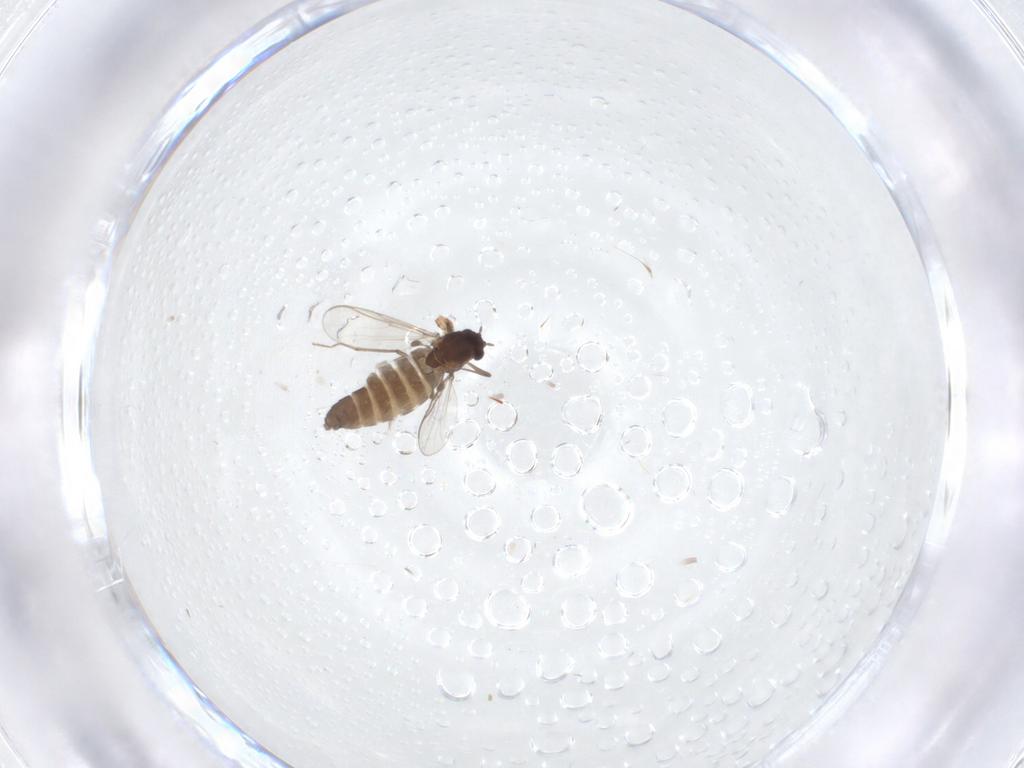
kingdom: Animalia
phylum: Arthropoda
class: Insecta
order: Diptera
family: Chironomidae
